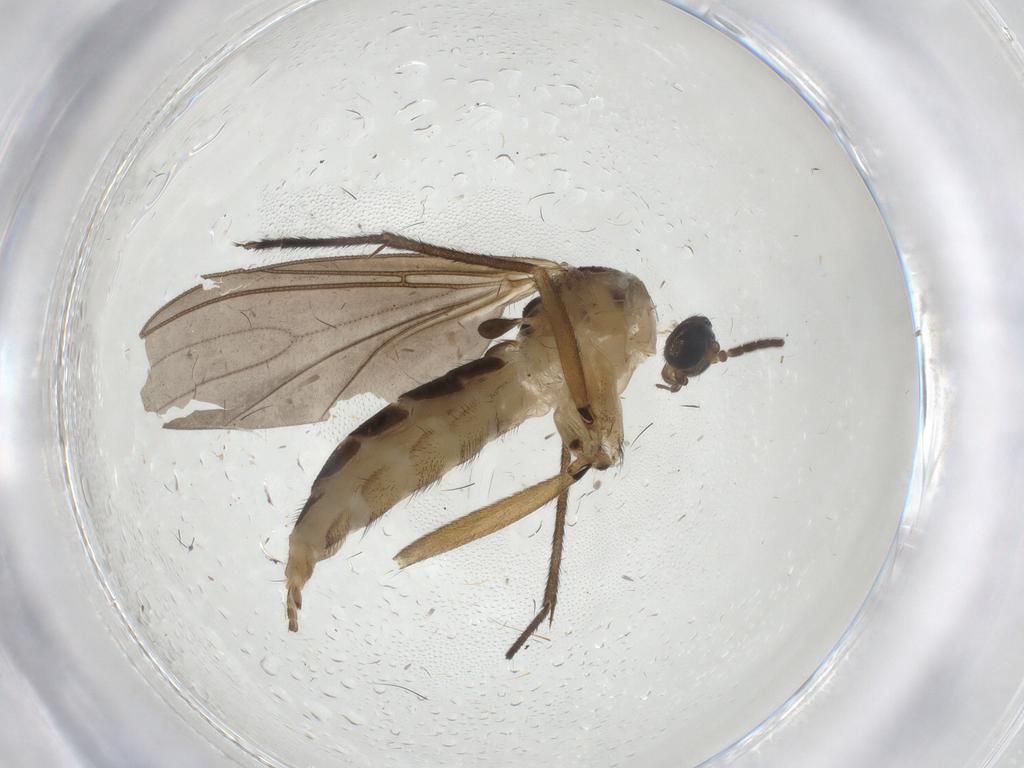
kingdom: Animalia
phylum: Arthropoda
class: Insecta
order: Diptera
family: Sciaridae
